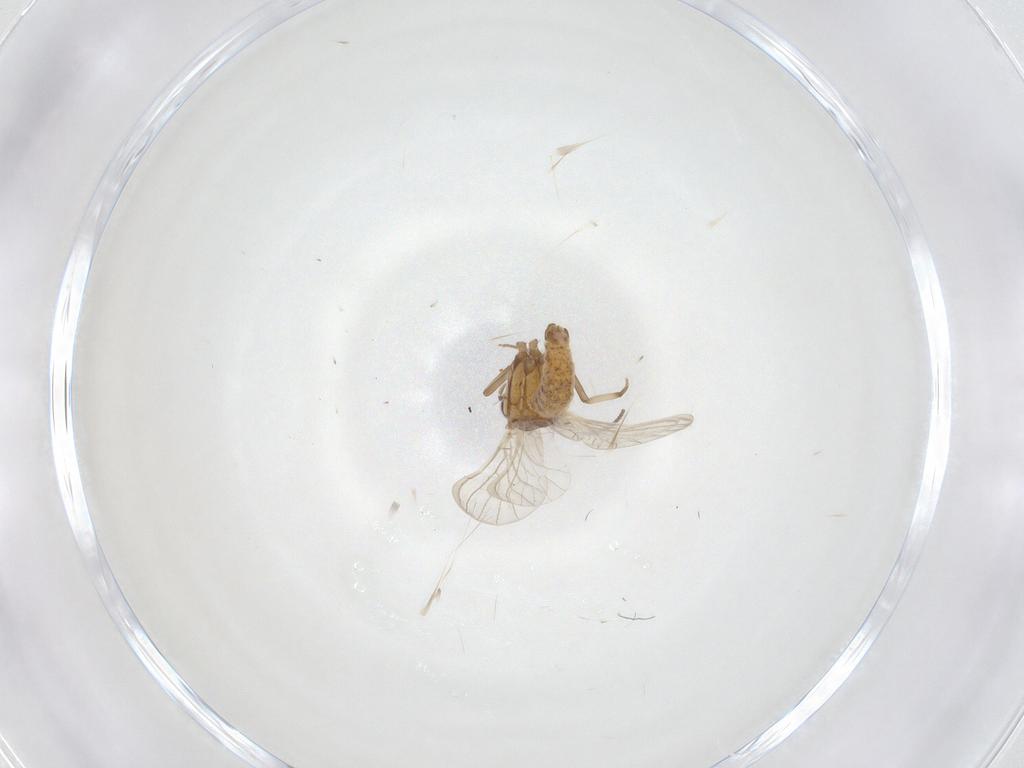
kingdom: Animalia
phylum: Arthropoda
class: Insecta
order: Neuroptera
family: Coniopterygidae
